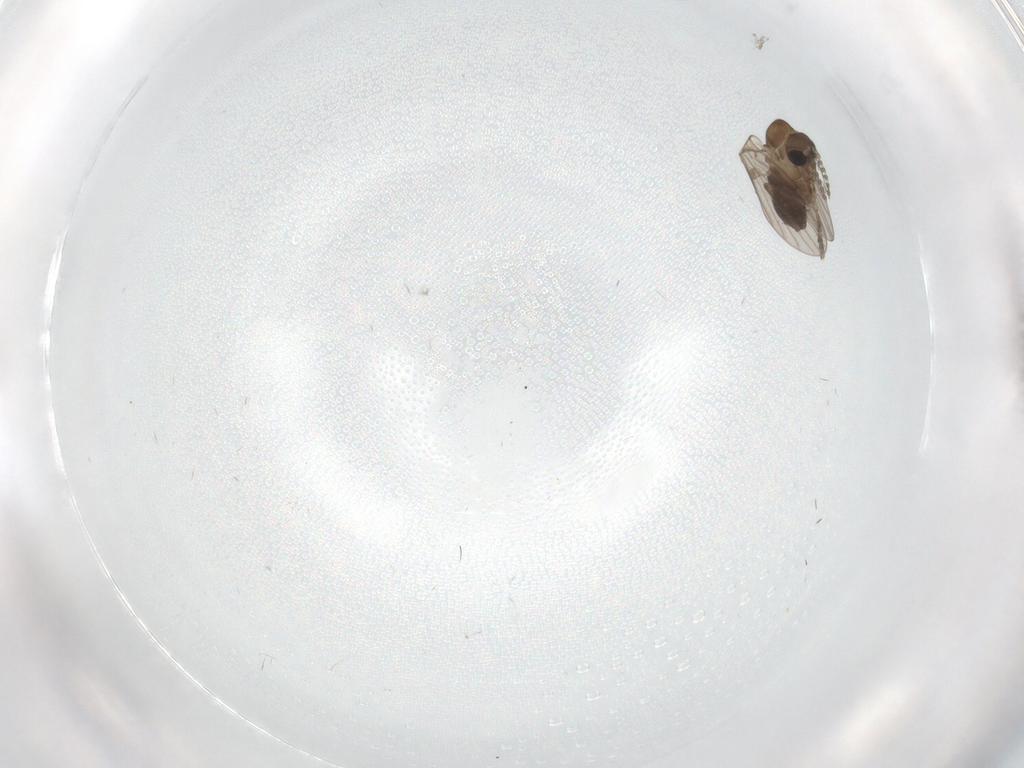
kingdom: Animalia
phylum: Arthropoda
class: Insecta
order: Diptera
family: Cecidomyiidae
